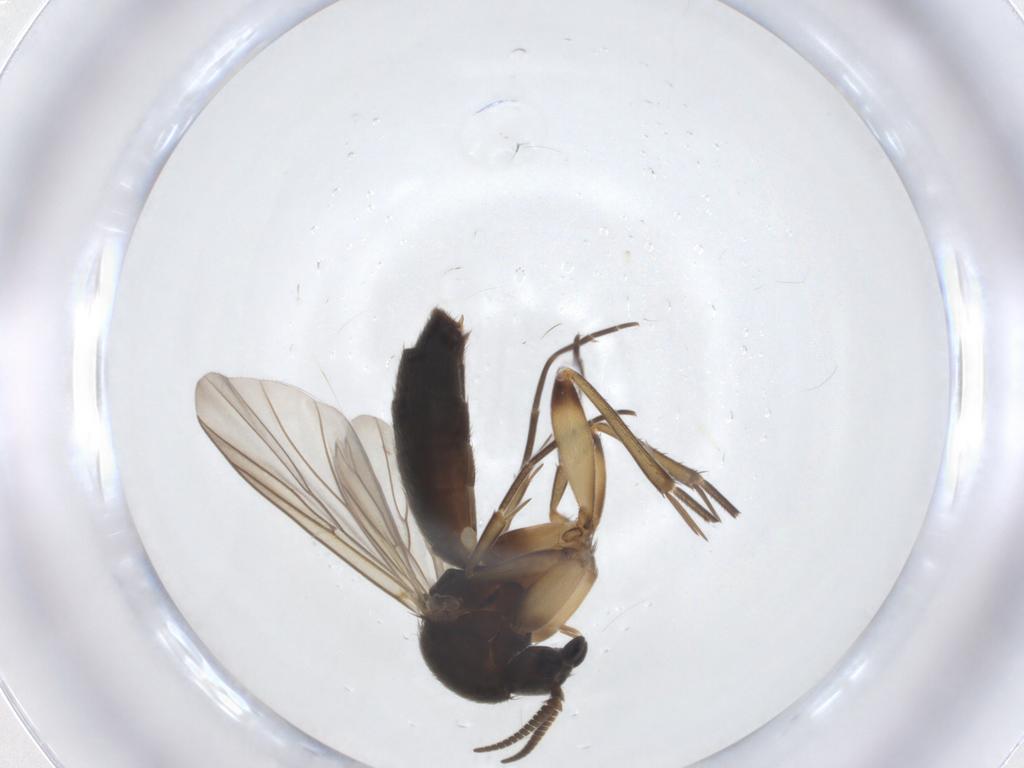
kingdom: Animalia
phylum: Arthropoda
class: Insecta
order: Diptera
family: Mycetophilidae
